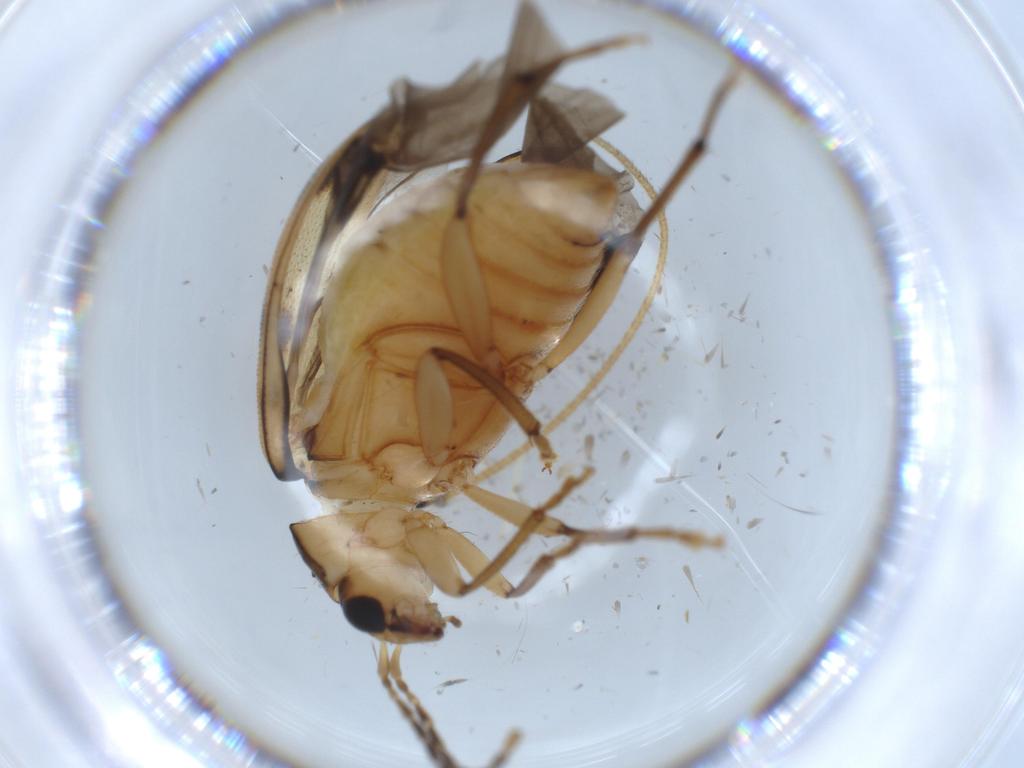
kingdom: Animalia
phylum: Arthropoda
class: Insecta
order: Coleoptera
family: Chrysomelidae
